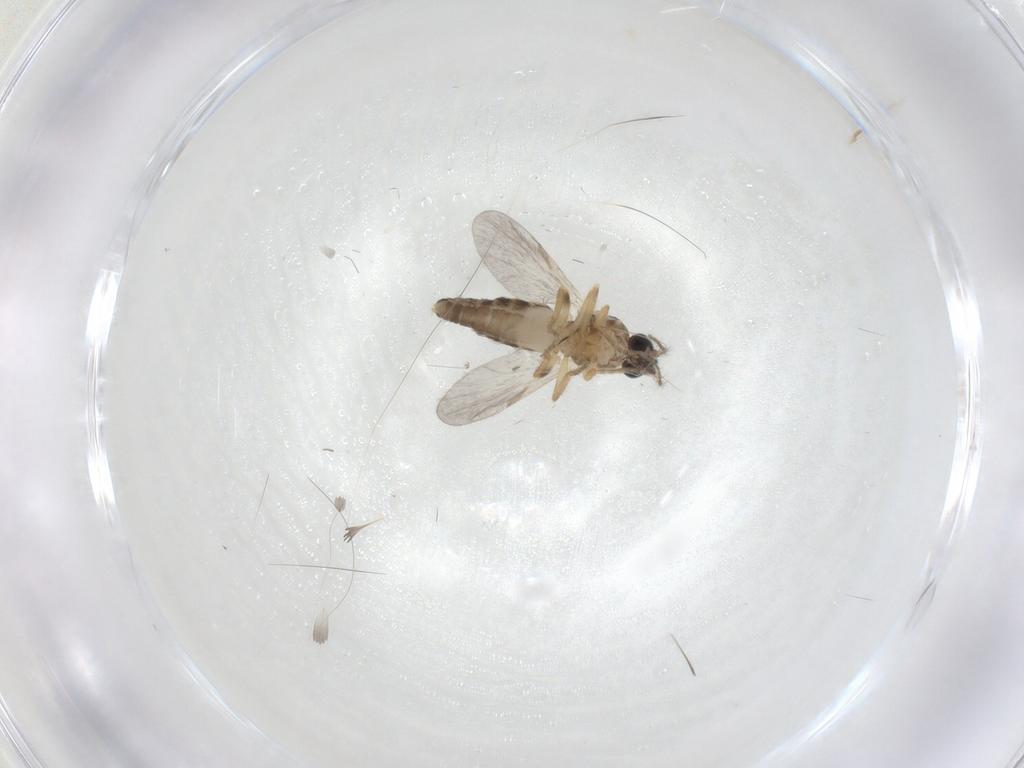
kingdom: Animalia
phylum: Arthropoda
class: Insecta
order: Diptera
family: Ceratopogonidae
